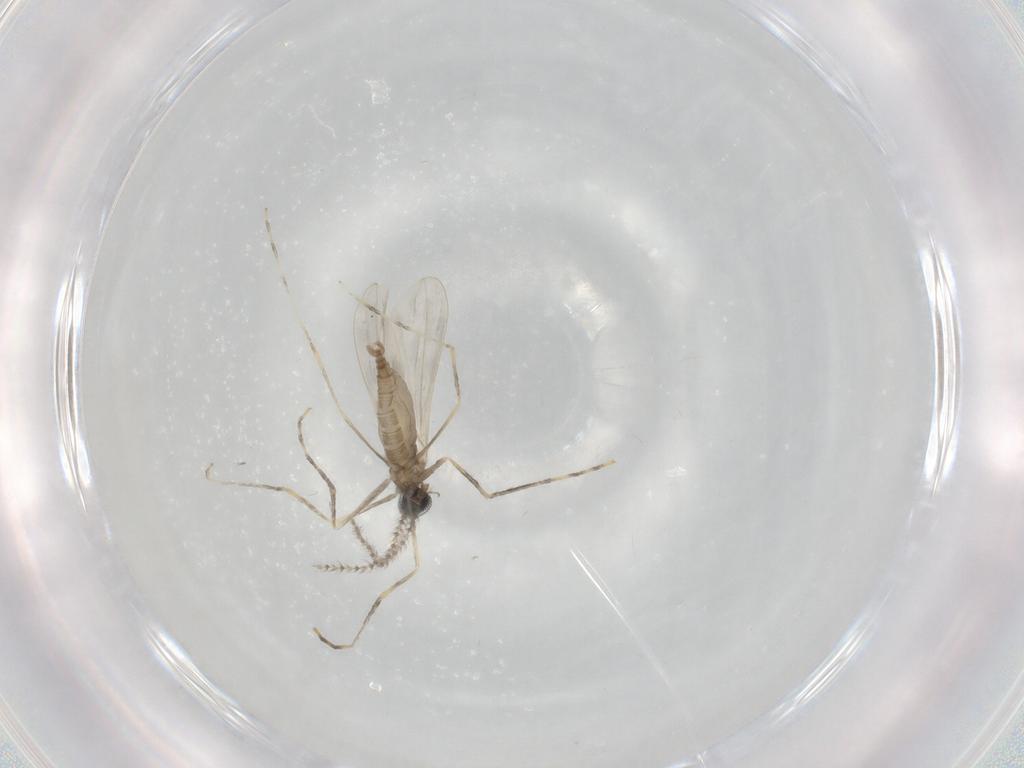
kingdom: Animalia
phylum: Arthropoda
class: Insecta
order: Diptera
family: Cecidomyiidae
